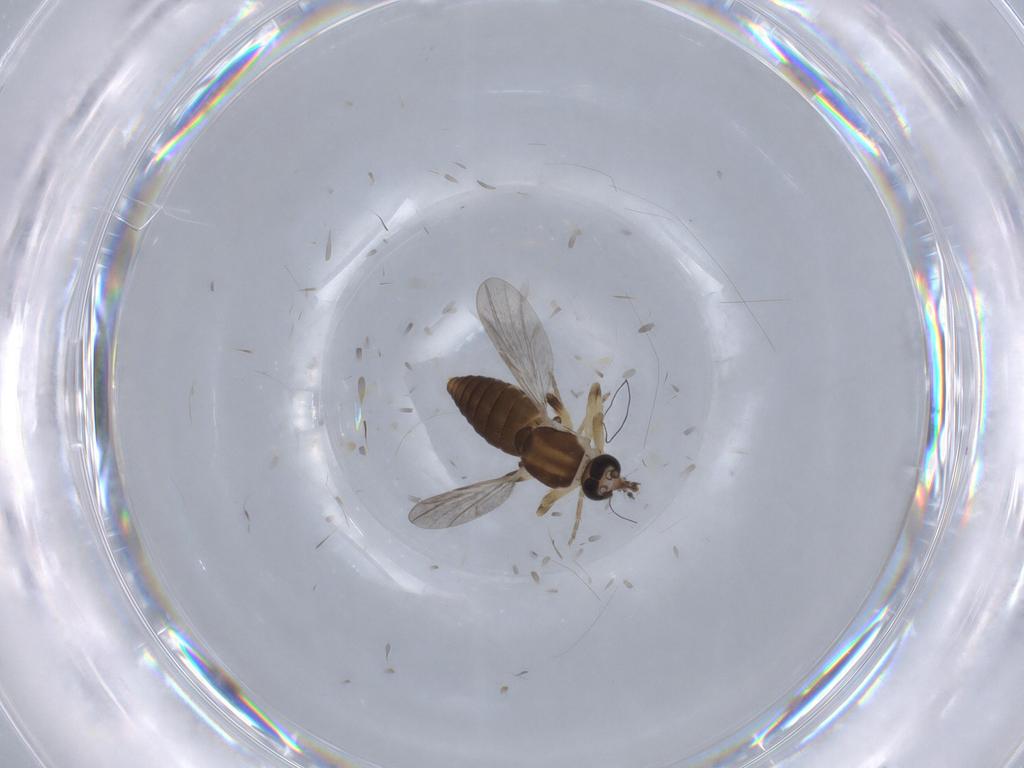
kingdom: Animalia
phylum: Arthropoda
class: Insecta
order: Diptera
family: Ceratopogonidae
